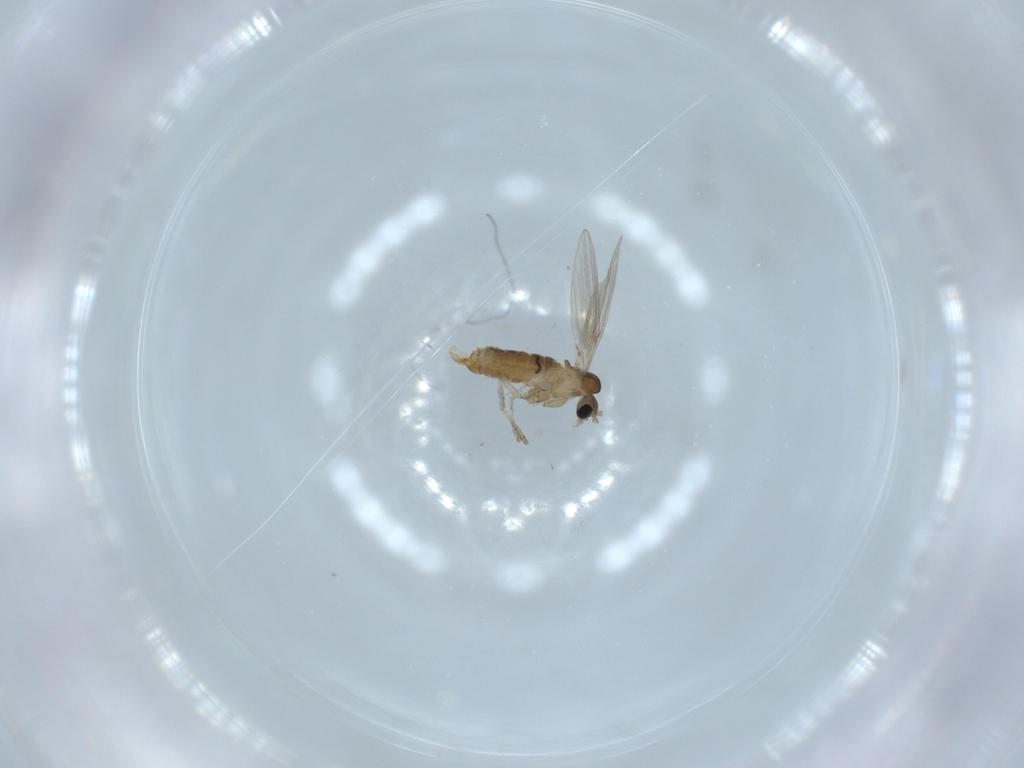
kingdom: Animalia
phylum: Arthropoda
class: Insecta
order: Diptera
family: Psychodidae
